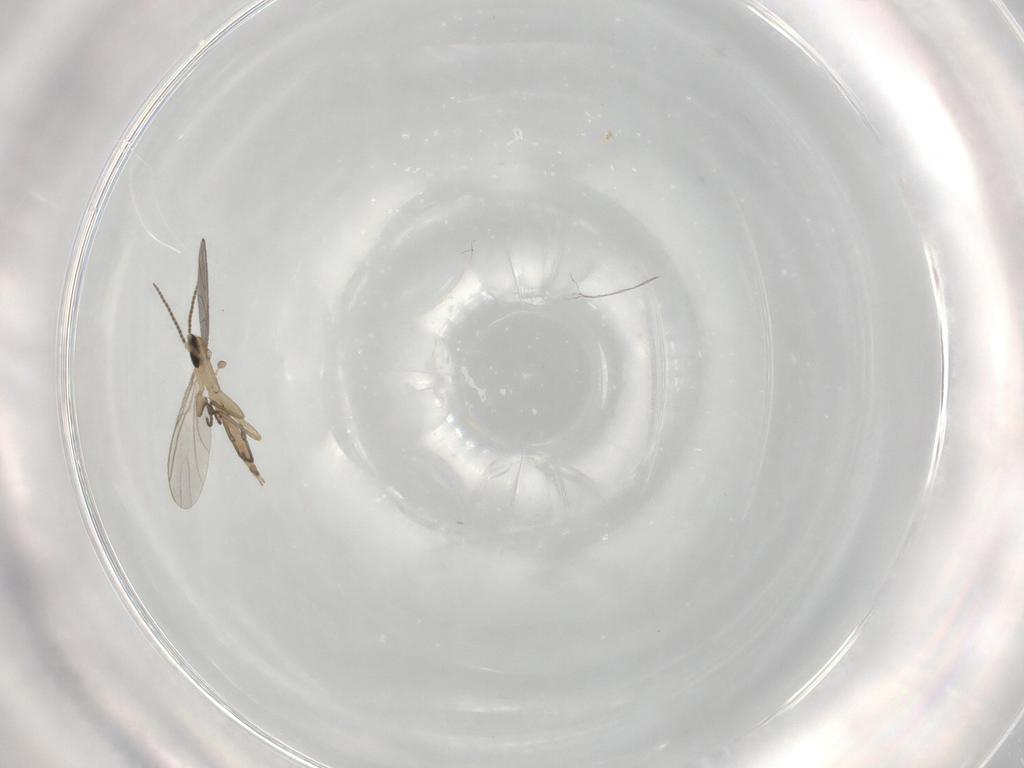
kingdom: Animalia
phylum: Arthropoda
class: Insecta
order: Diptera
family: Sciaridae
